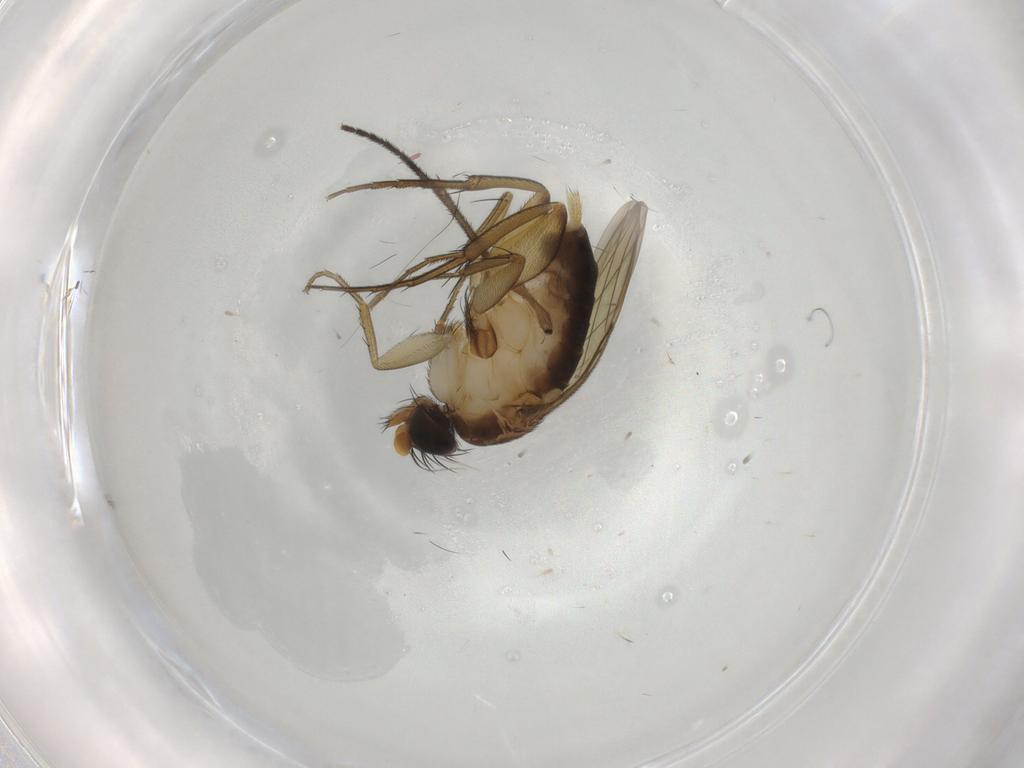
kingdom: Animalia
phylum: Arthropoda
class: Insecta
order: Diptera
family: Phoridae
